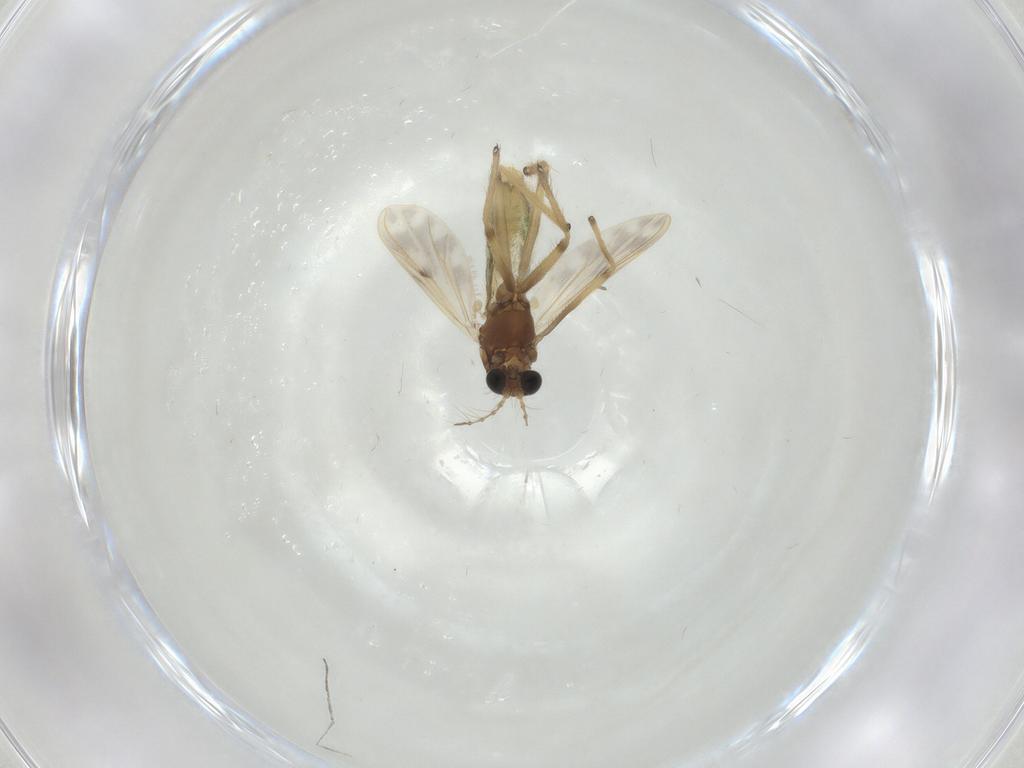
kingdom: Animalia
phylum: Arthropoda
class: Insecta
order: Diptera
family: Chironomidae
